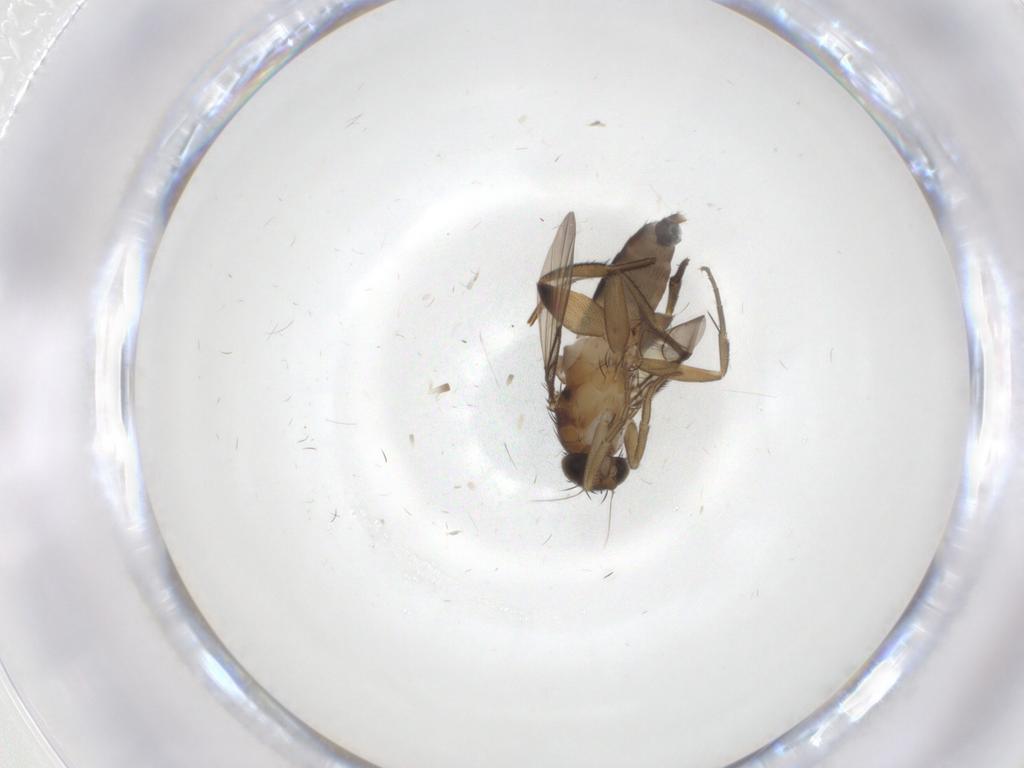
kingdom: Animalia
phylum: Arthropoda
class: Insecta
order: Diptera
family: Phoridae
